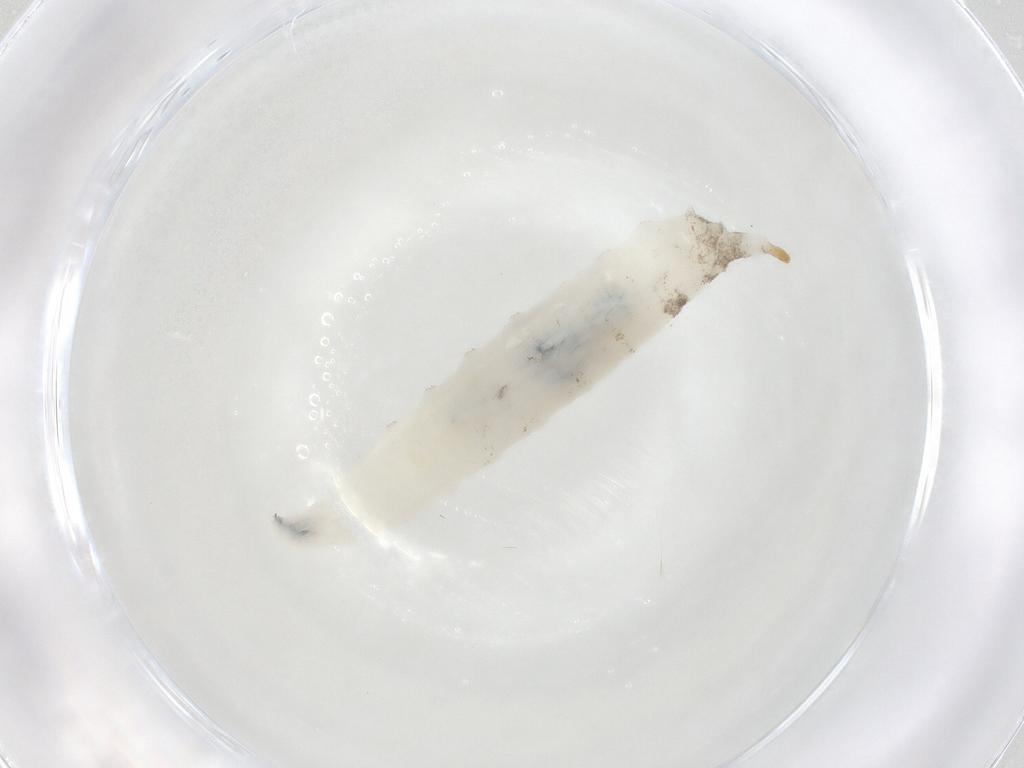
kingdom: Animalia
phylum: Arthropoda
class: Insecta
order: Diptera
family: Drosophilidae
